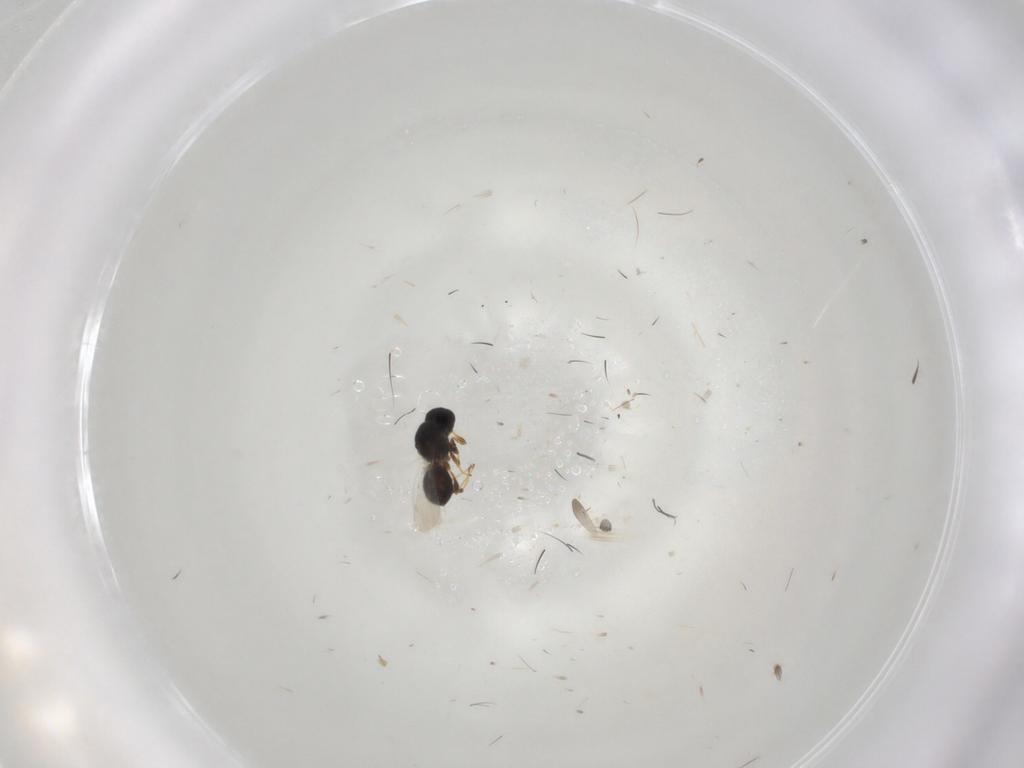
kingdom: Animalia
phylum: Arthropoda
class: Insecta
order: Hymenoptera
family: Platygastridae
